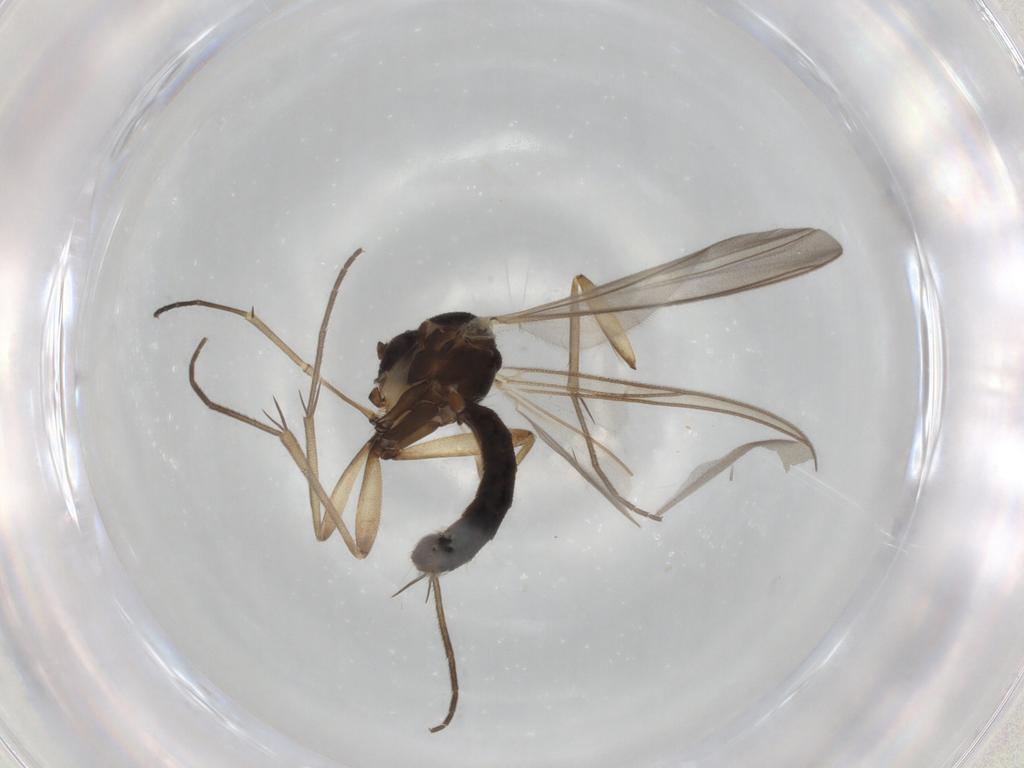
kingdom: Animalia
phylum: Arthropoda
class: Insecta
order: Diptera
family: Mycetophilidae
